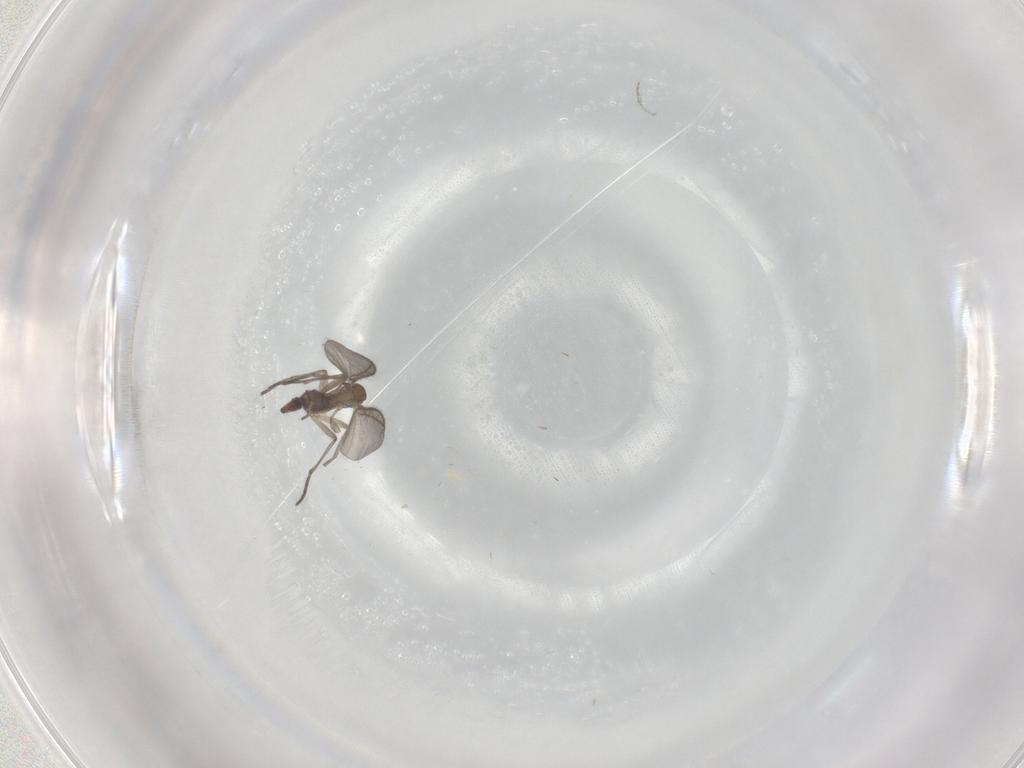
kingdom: Animalia
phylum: Arthropoda
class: Insecta
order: Diptera
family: Sciaridae
